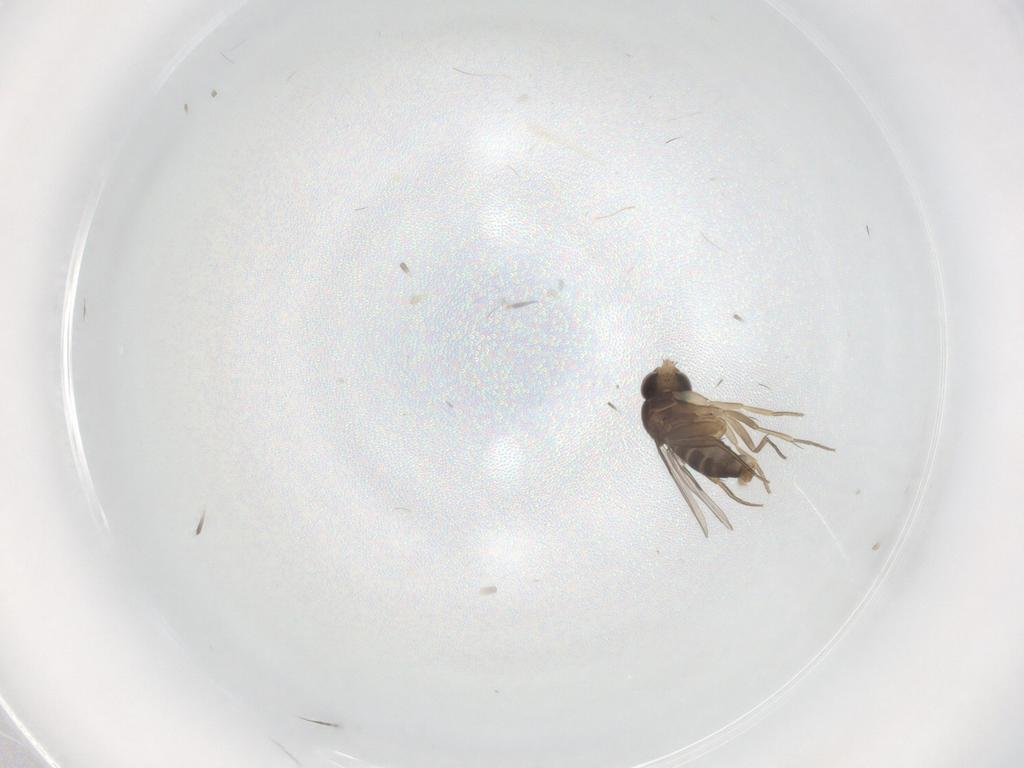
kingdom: Animalia
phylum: Arthropoda
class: Insecta
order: Diptera
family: Phoridae
